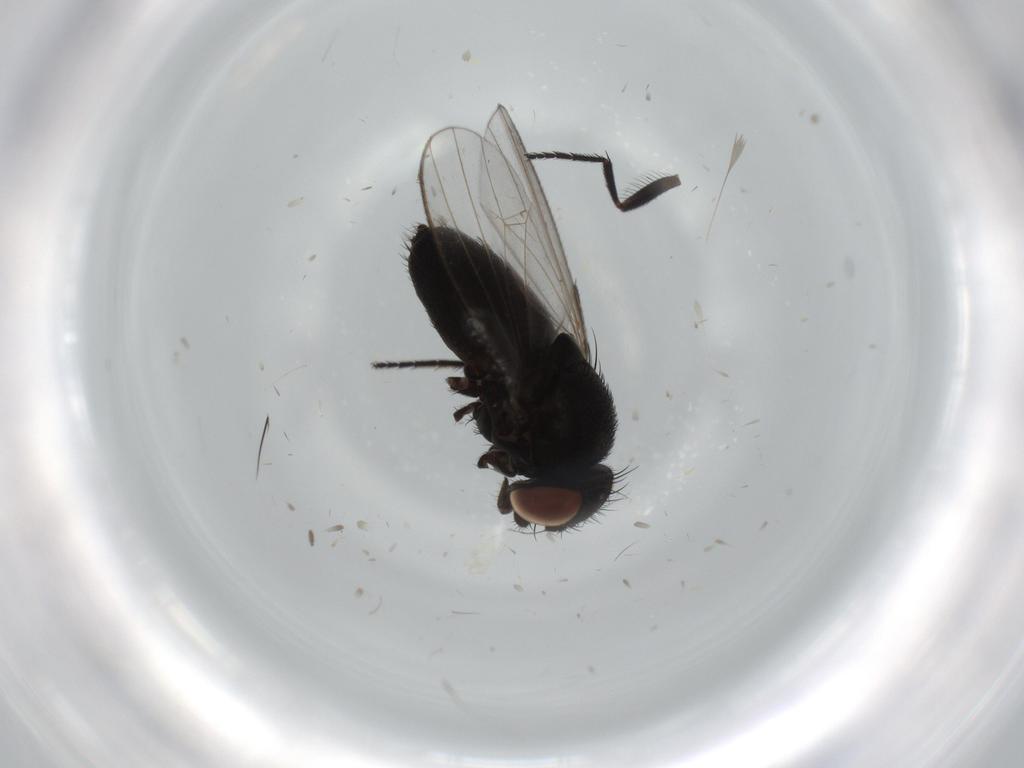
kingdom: Animalia
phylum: Arthropoda
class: Insecta
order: Diptera
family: Milichiidae
